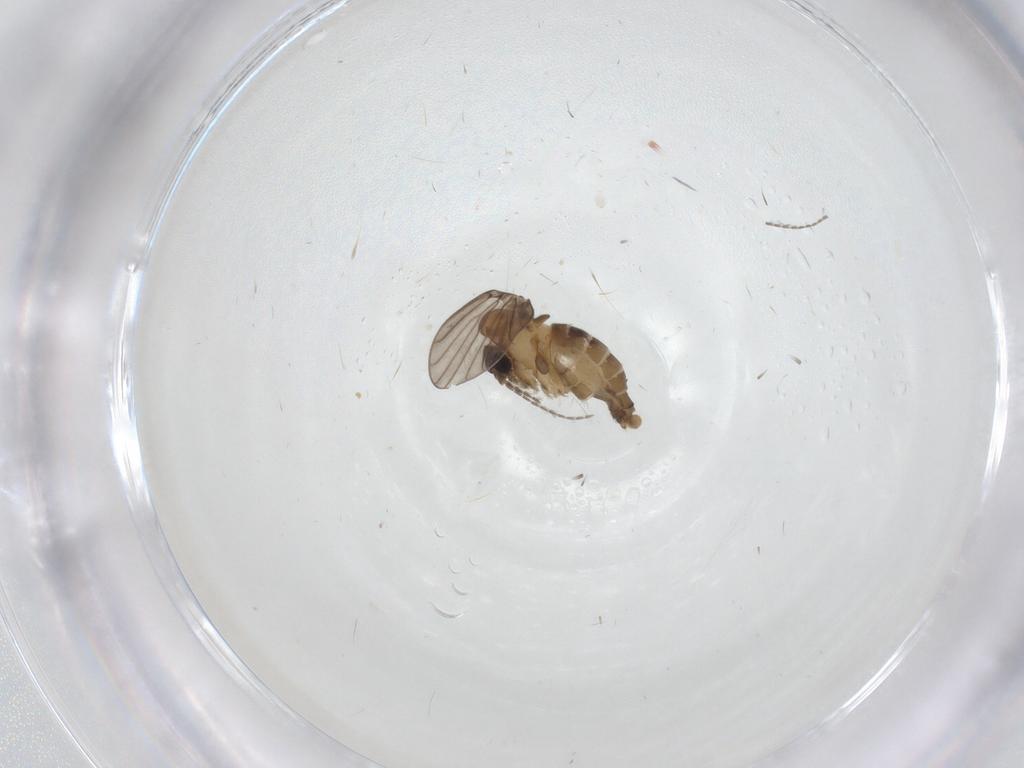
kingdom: Animalia
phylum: Arthropoda
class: Insecta
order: Diptera
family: Cecidomyiidae
